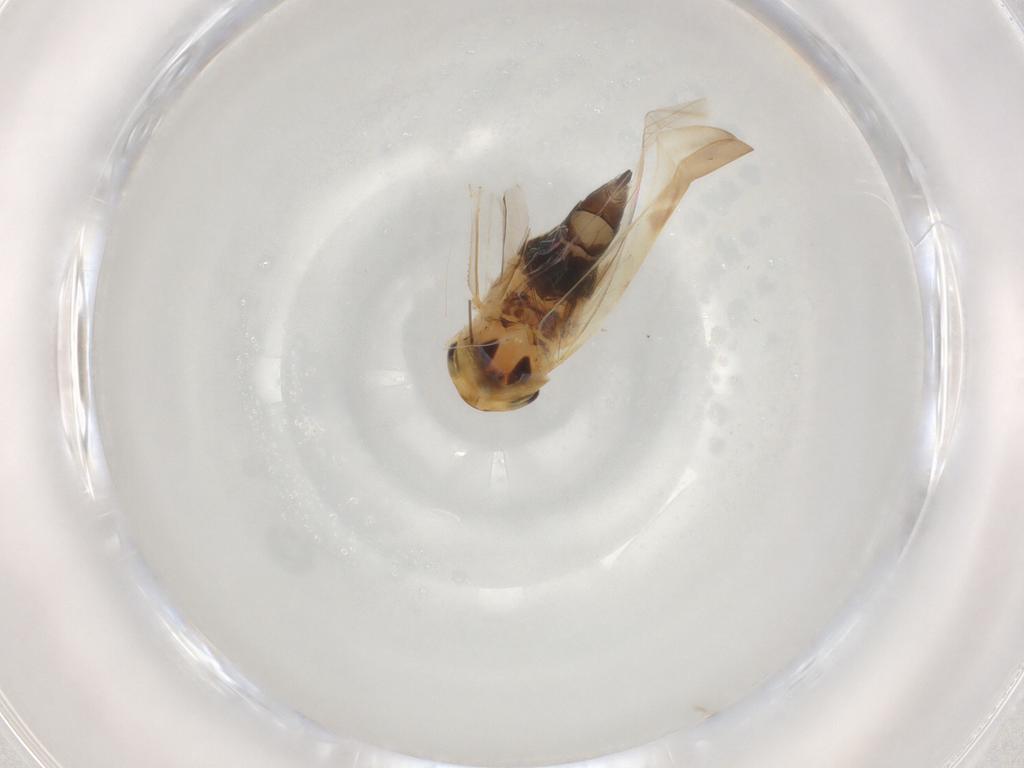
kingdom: Animalia
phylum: Arthropoda
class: Insecta
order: Hemiptera
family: Cicadellidae
